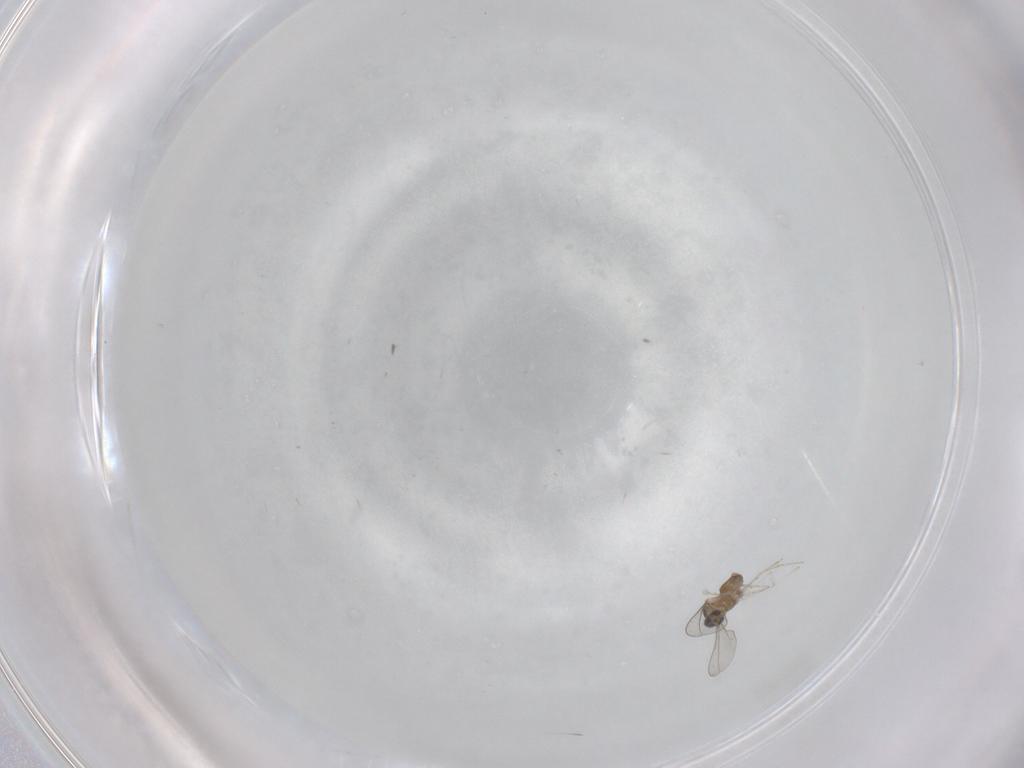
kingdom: Animalia
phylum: Arthropoda
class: Insecta
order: Diptera
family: Cecidomyiidae
